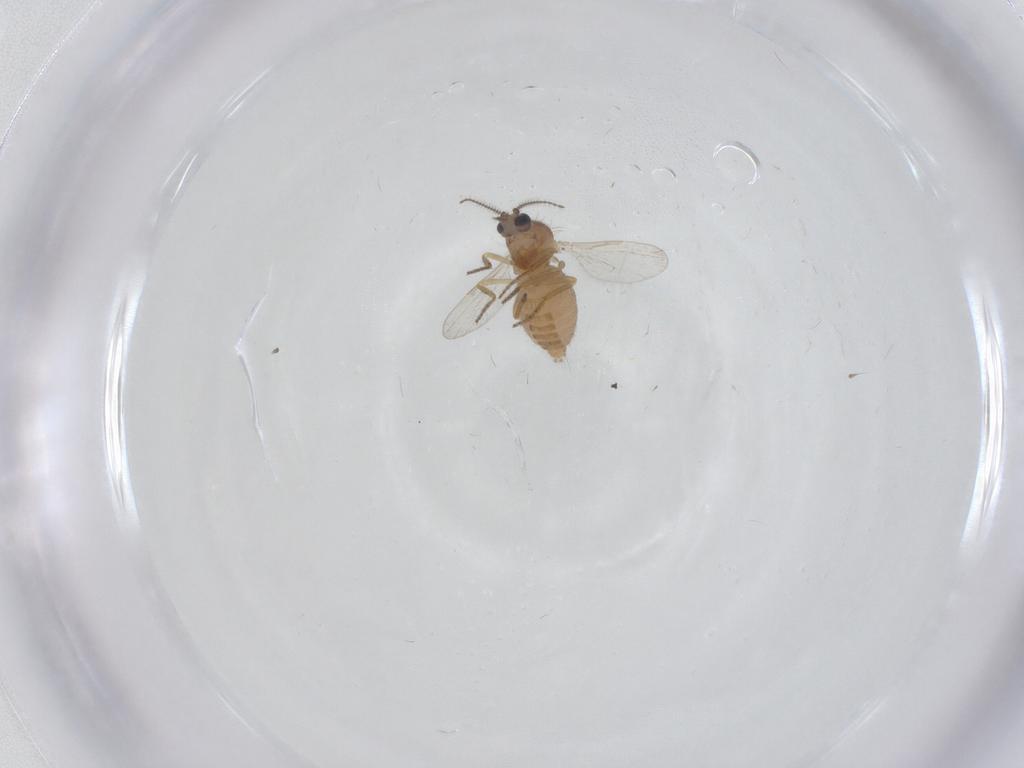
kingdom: Animalia
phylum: Arthropoda
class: Insecta
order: Diptera
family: Ceratopogonidae
